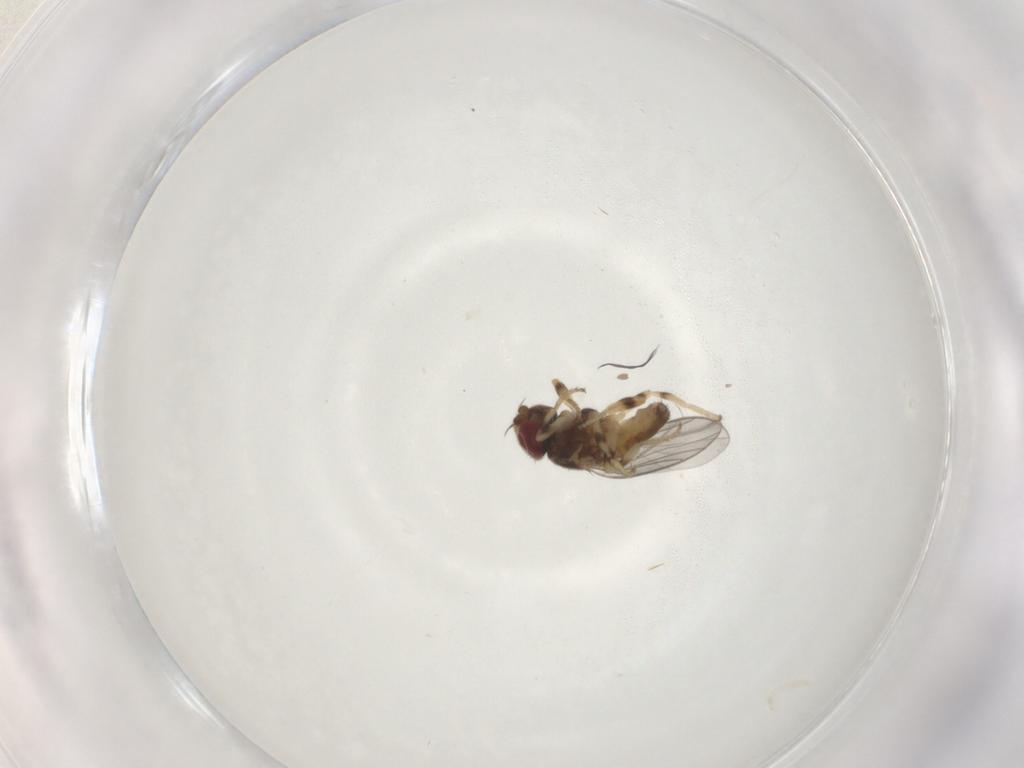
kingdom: Animalia
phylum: Arthropoda
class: Insecta
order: Diptera
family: Chloropidae
